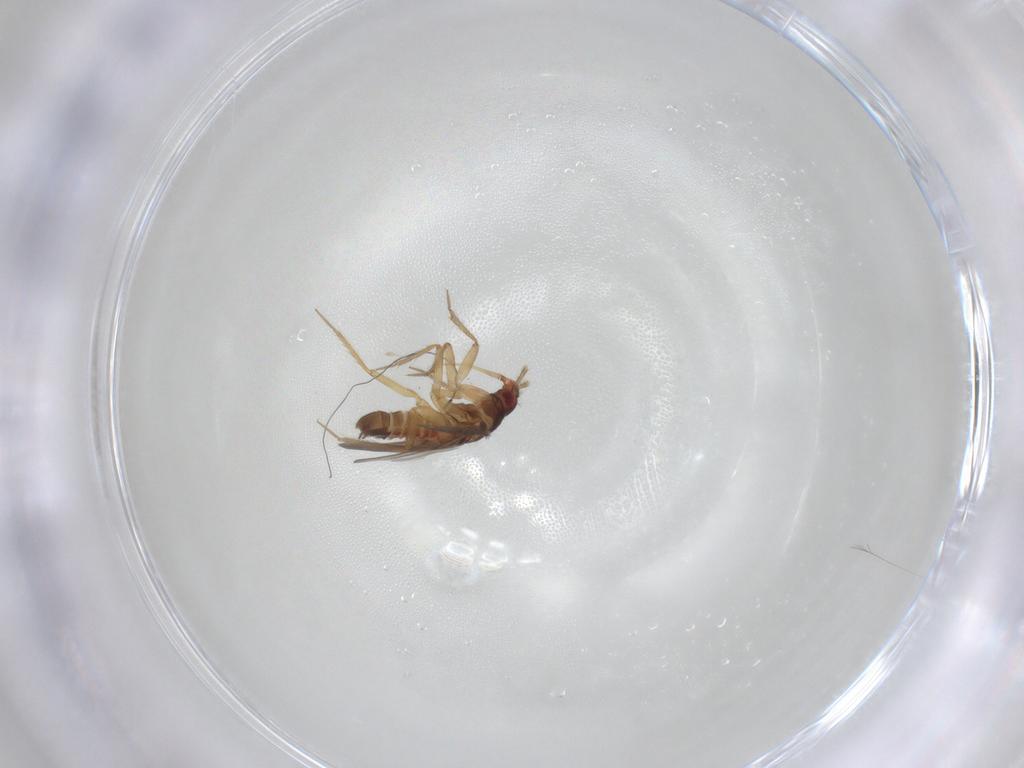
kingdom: Animalia
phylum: Arthropoda
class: Insecta
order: Hemiptera
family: Ceratocombidae
